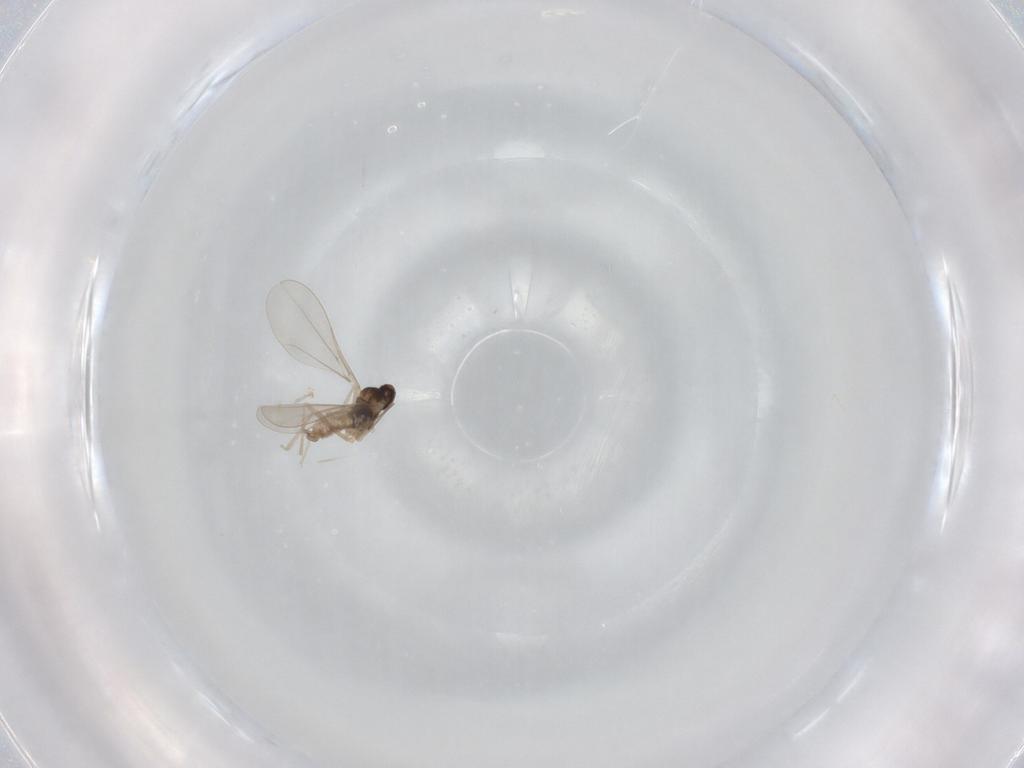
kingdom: Animalia
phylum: Arthropoda
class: Insecta
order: Diptera
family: Cecidomyiidae
